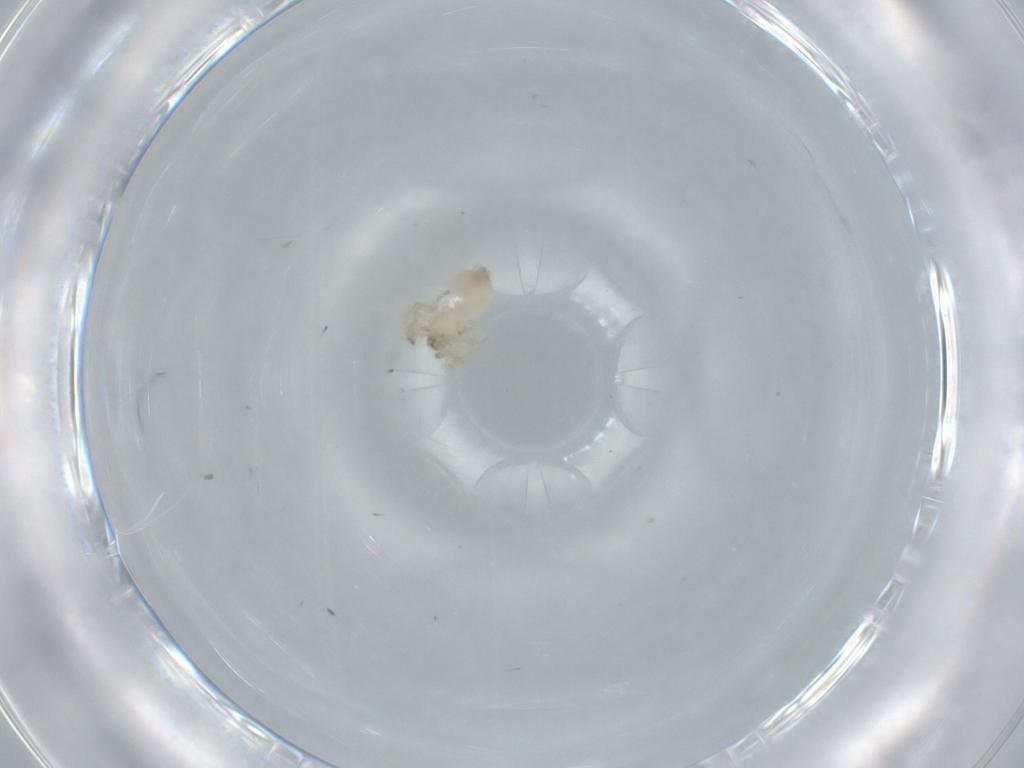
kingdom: Animalia
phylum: Arthropoda
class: Arachnida
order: Araneae
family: Oonopidae
